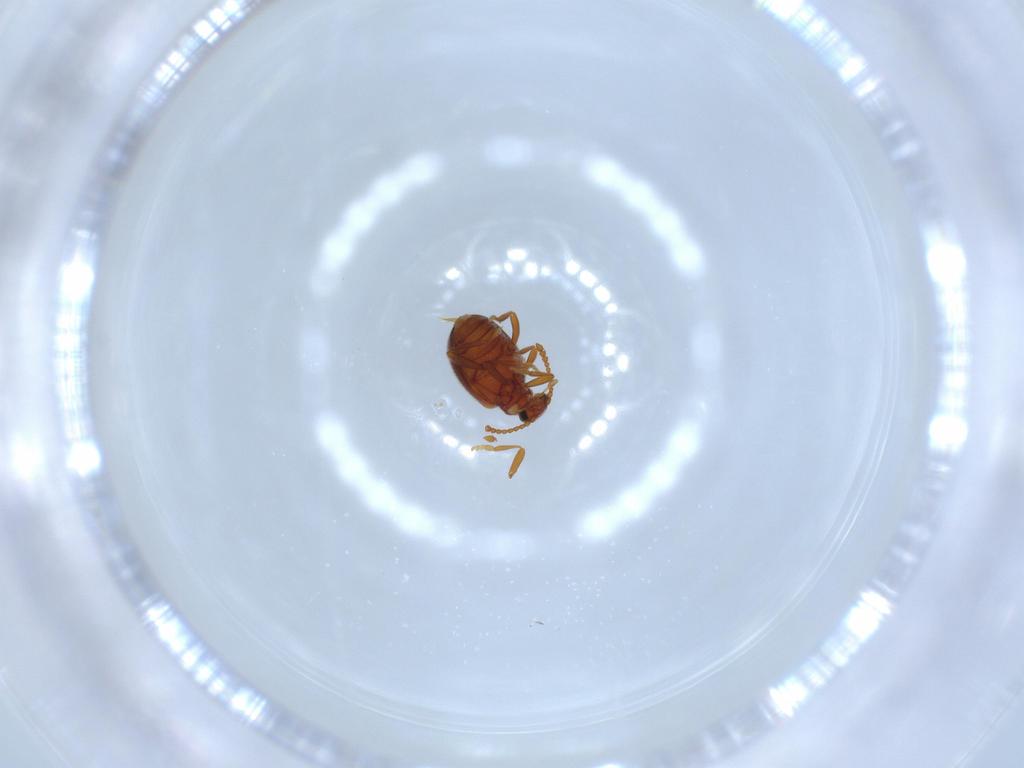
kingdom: Animalia
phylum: Arthropoda
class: Insecta
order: Coleoptera
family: Aderidae
